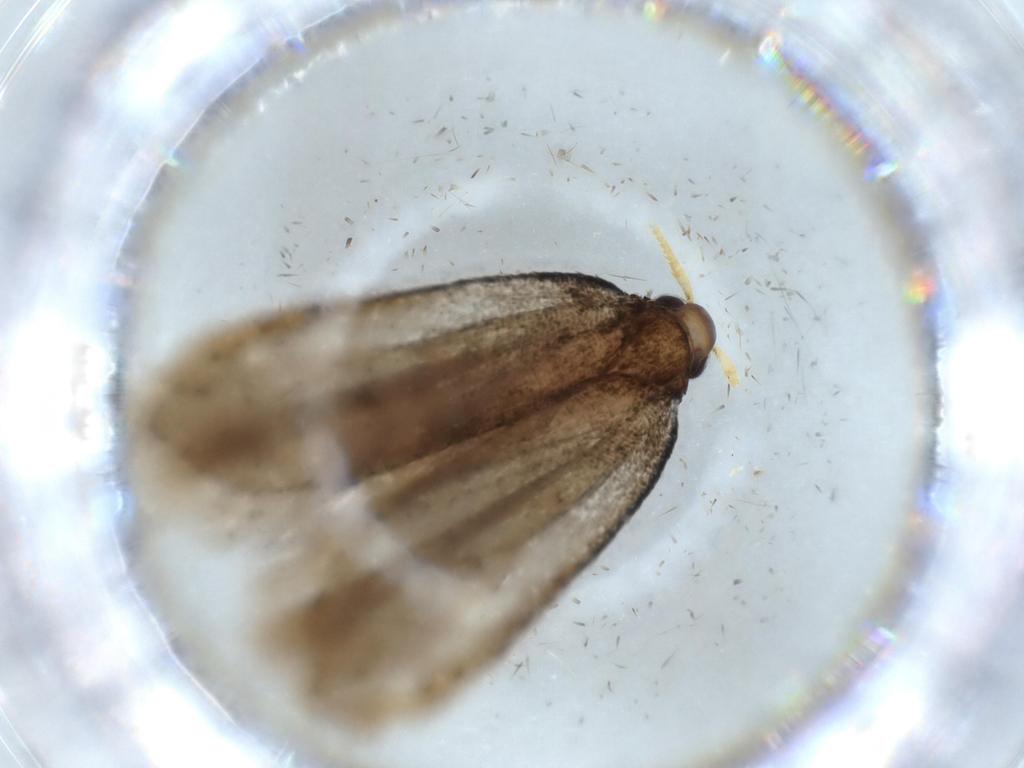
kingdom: Animalia
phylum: Arthropoda
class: Insecta
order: Lepidoptera
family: Lecithoceridae
